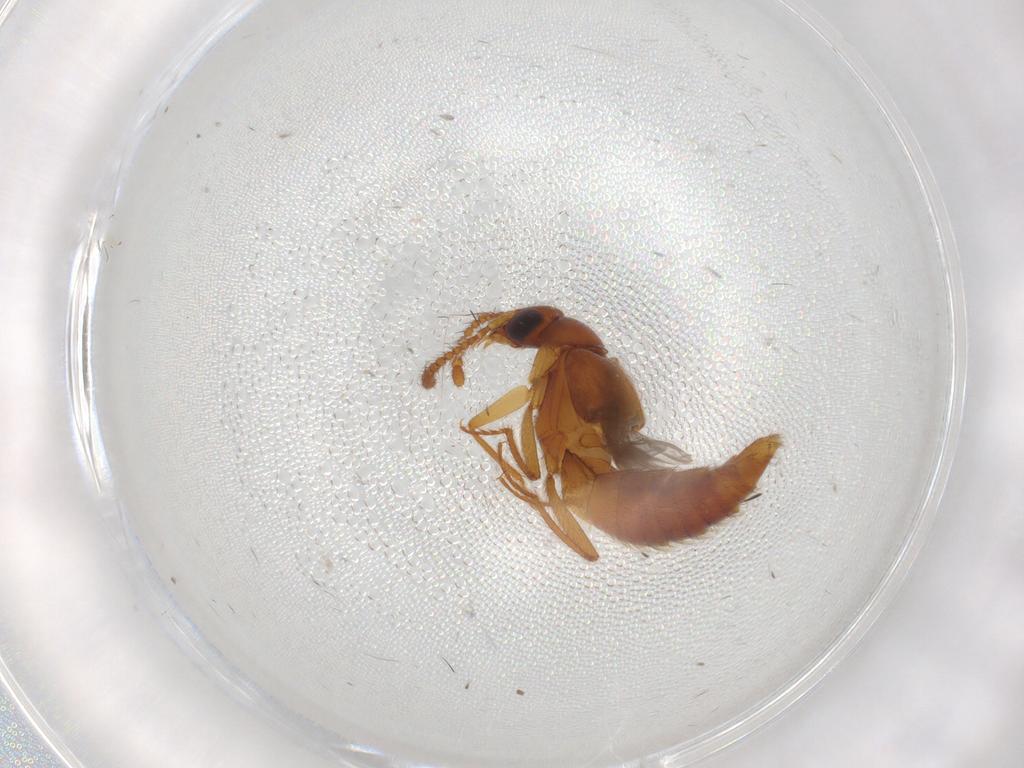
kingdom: Animalia
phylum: Arthropoda
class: Insecta
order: Coleoptera
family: Staphylinidae
